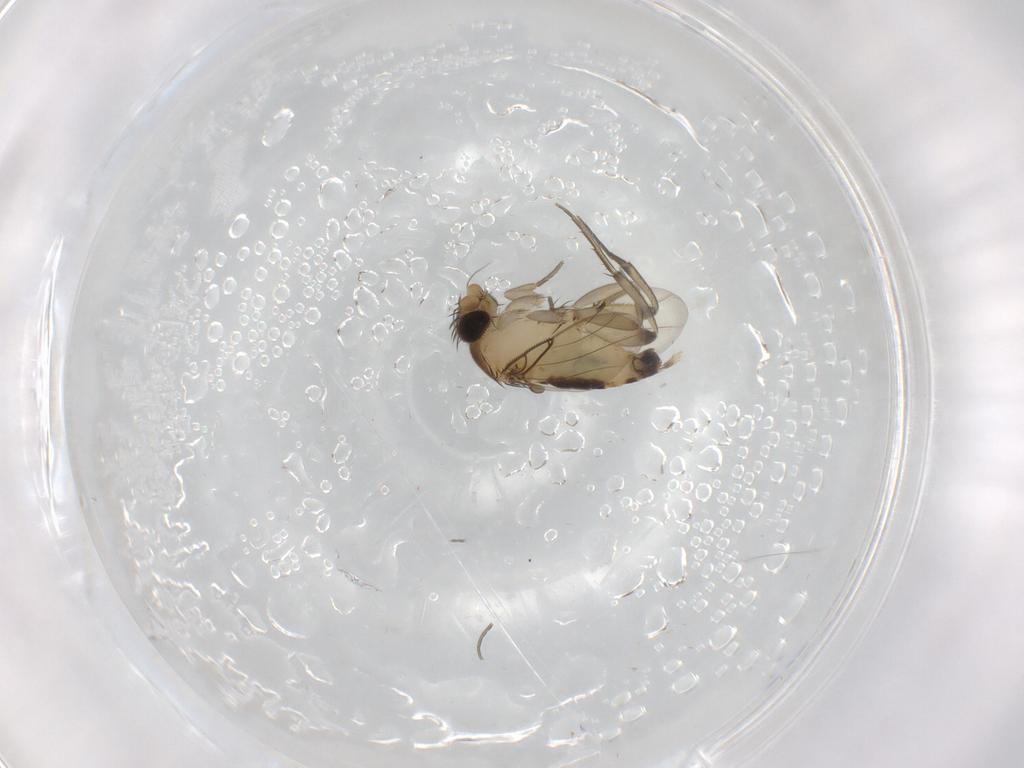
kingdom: Animalia
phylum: Arthropoda
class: Insecta
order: Diptera
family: Phoridae
